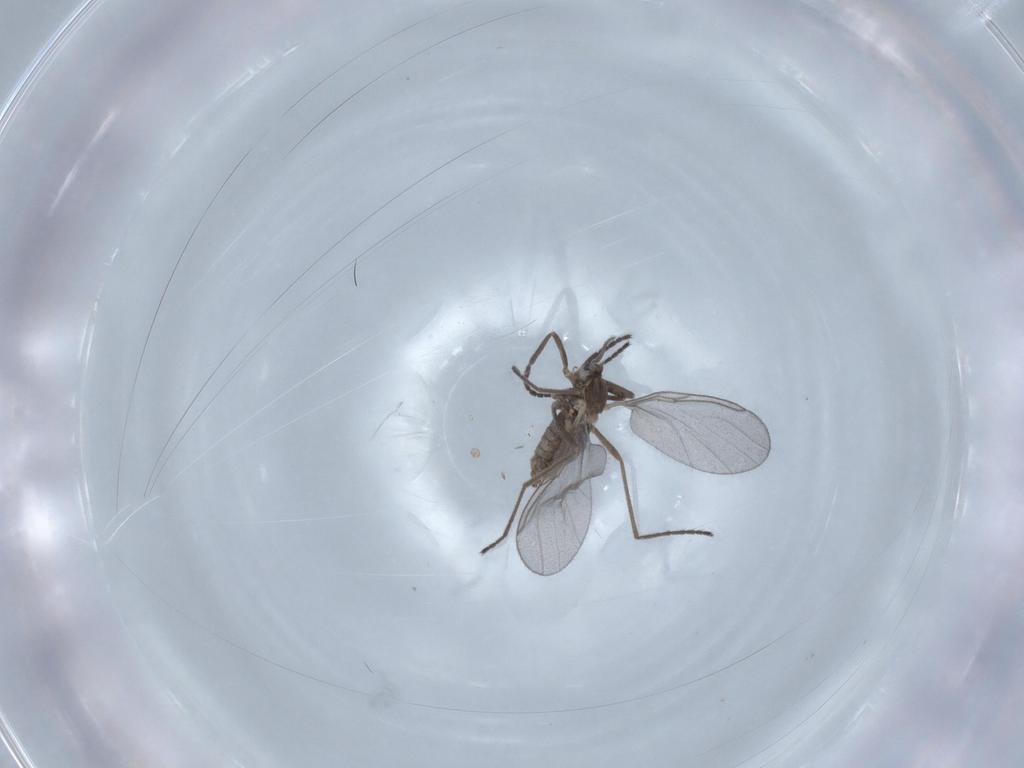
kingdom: Animalia
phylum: Arthropoda
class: Insecta
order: Diptera
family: Cecidomyiidae
